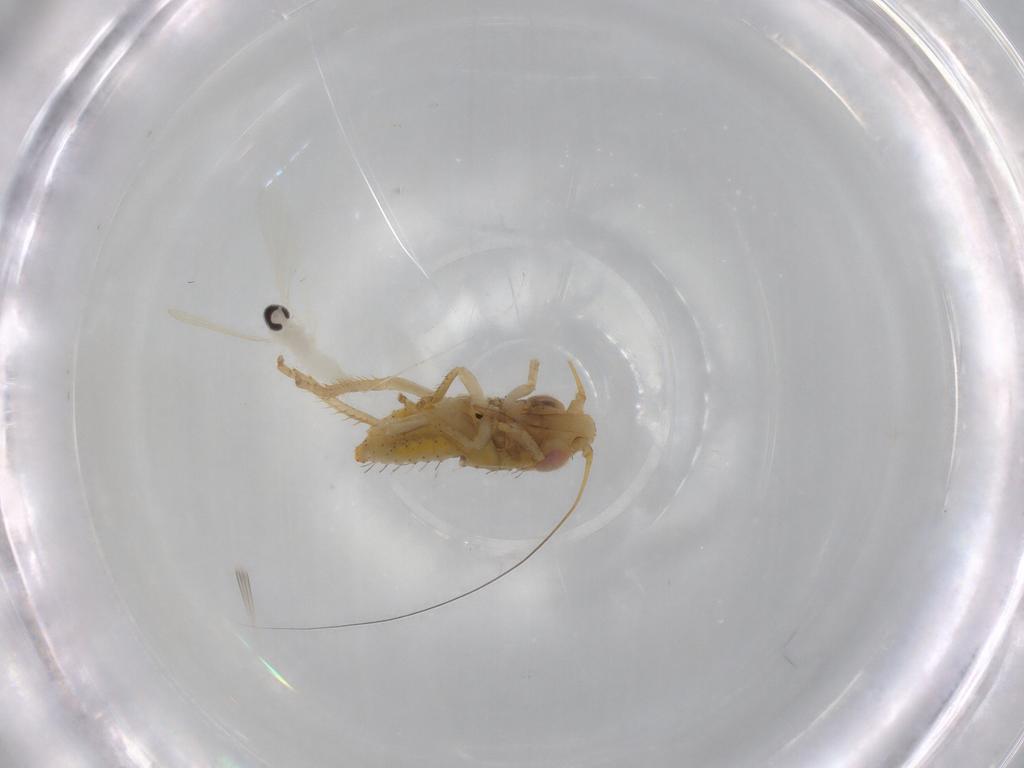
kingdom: Animalia
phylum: Arthropoda
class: Insecta
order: Hemiptera
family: Cicadellidae
